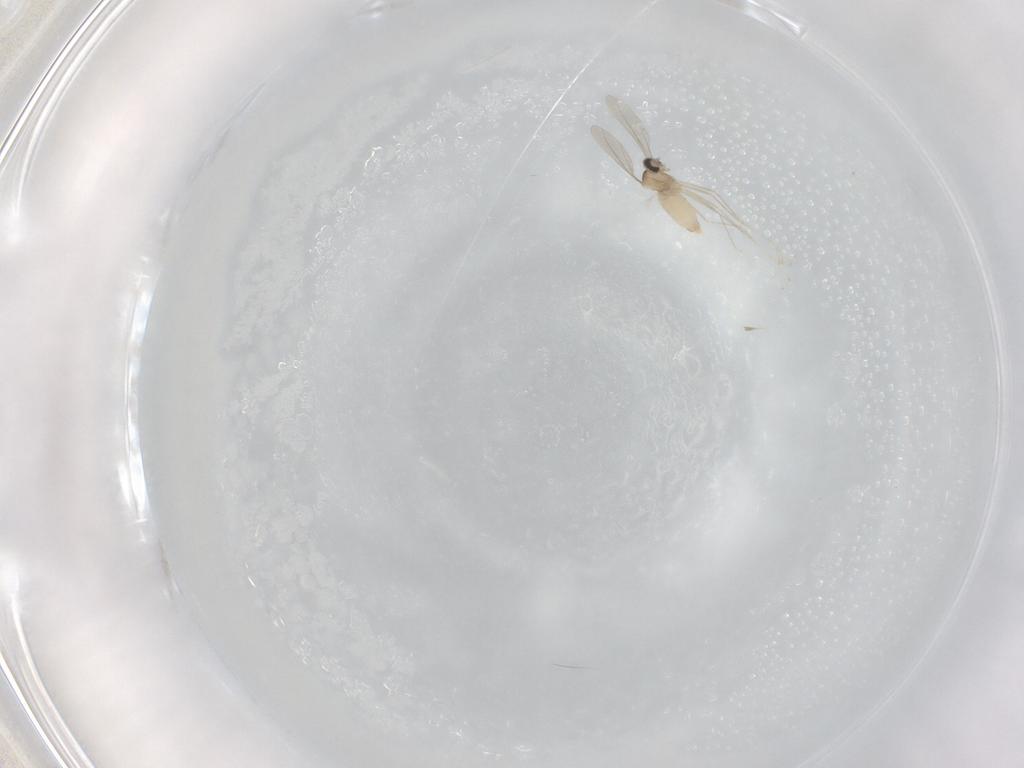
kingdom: Animalia
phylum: Arthropoda
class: Insecta
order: Diptera
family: Cecidomyiidae
